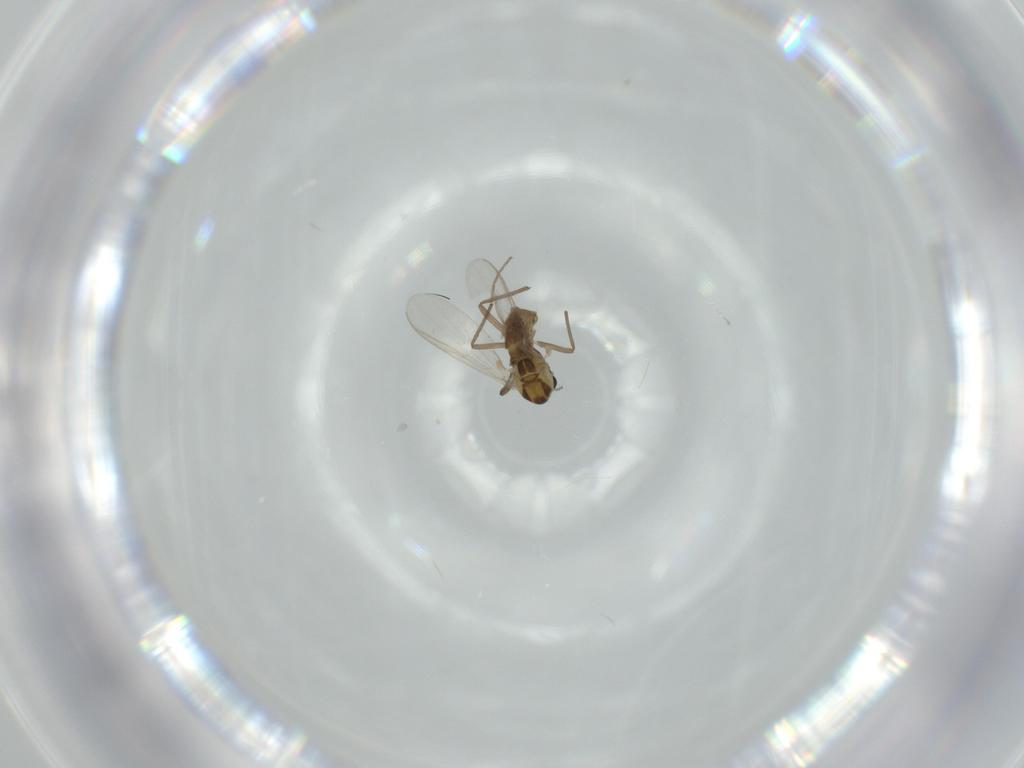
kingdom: Animalia
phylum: Arthropoda
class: Insecta
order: Diptera
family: Chironomidae
